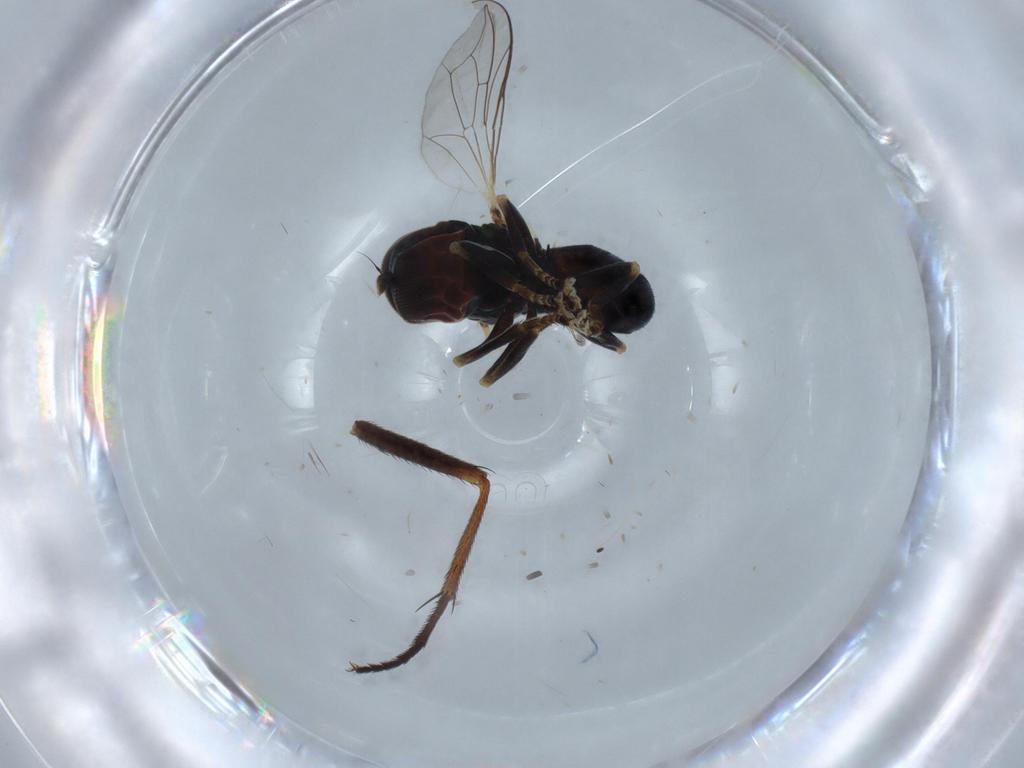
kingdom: Animalia
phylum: Arthropoda
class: Insecta
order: Diptera
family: Pipunculidae
